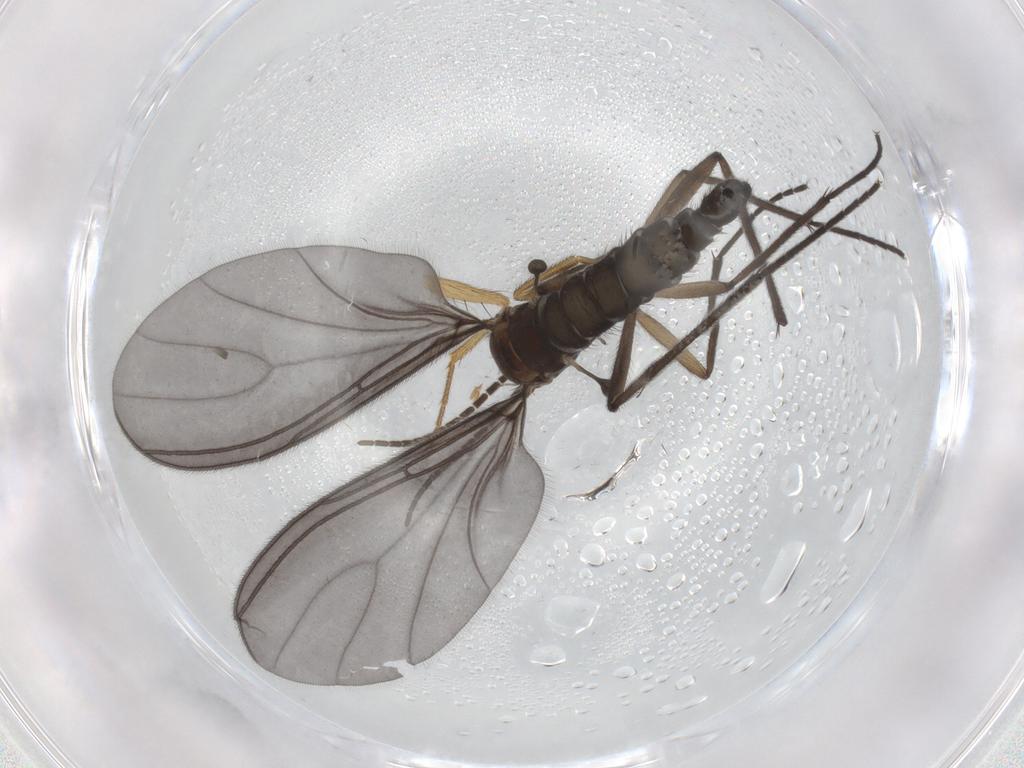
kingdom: Animalia
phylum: Arthropoda
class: Insecta
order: Diptera
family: Drosophilidae
